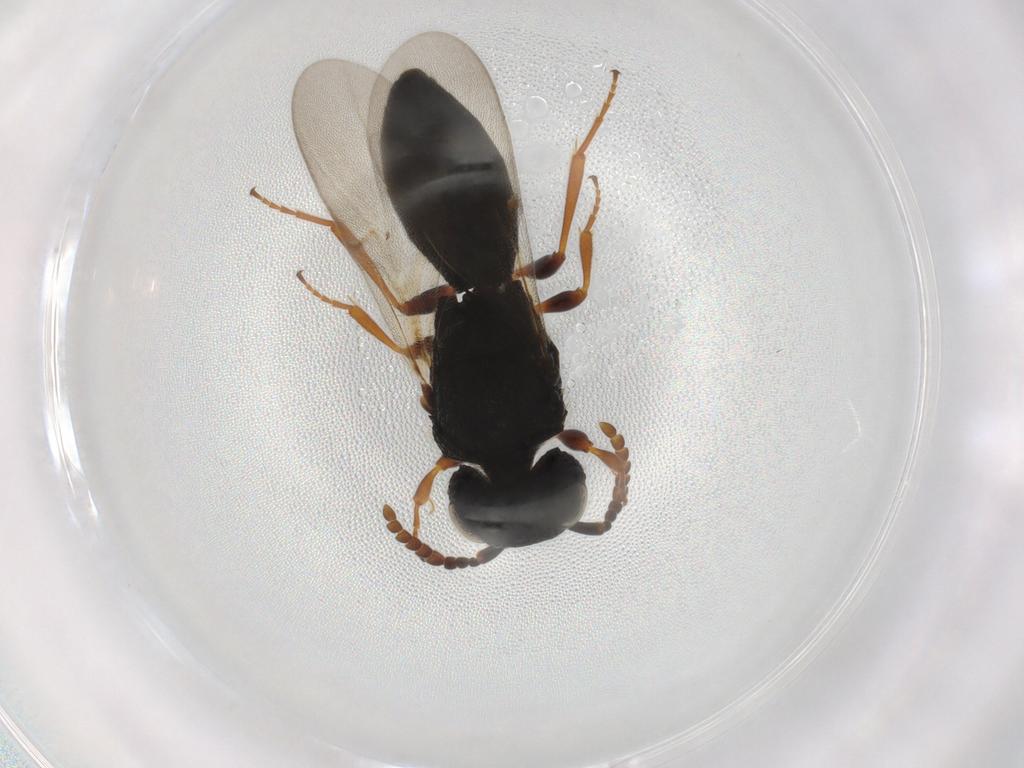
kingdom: Animalia
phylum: Arthropoda
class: Insecta
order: Hymenoptera
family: Scelionidae
